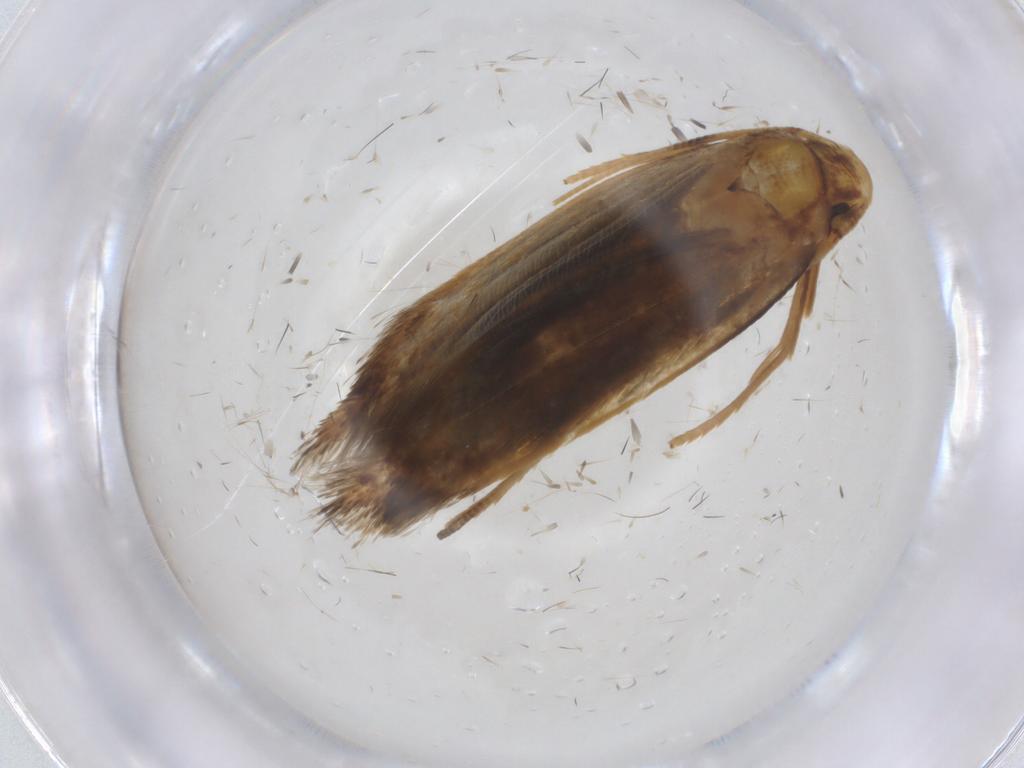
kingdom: Animalia
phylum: Arthropoda
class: Insecta
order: Lepidoptera
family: Tineidae
